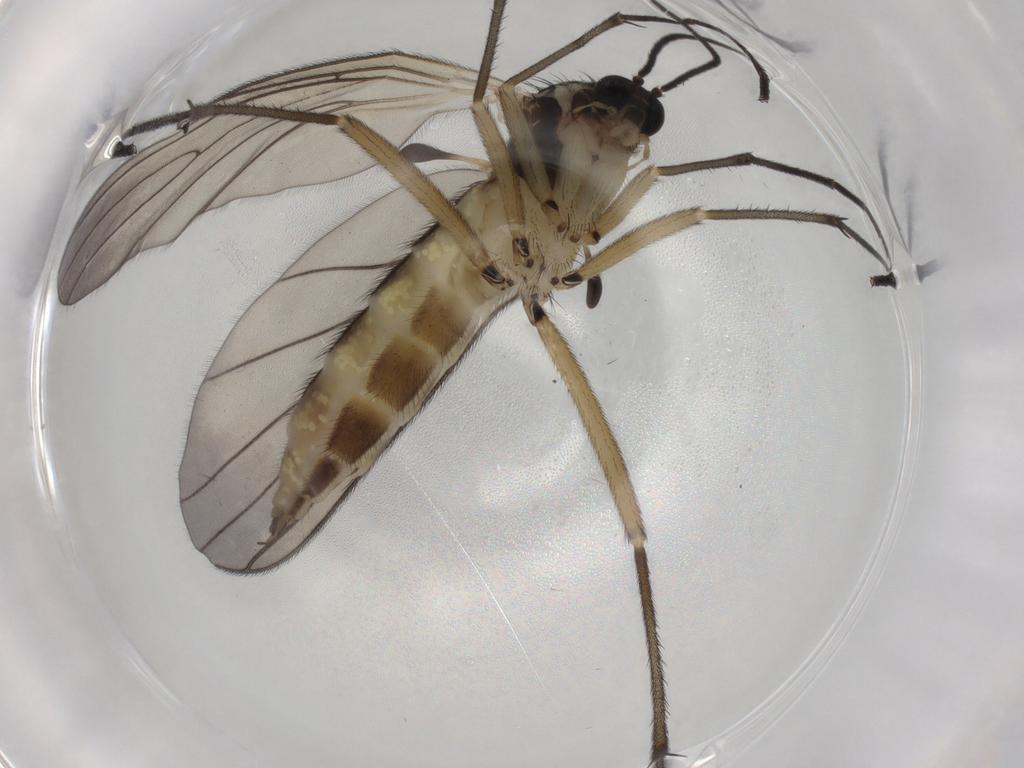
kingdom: Animalia
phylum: Arthropoda
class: Insecta
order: Diptera
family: Sciaridae
